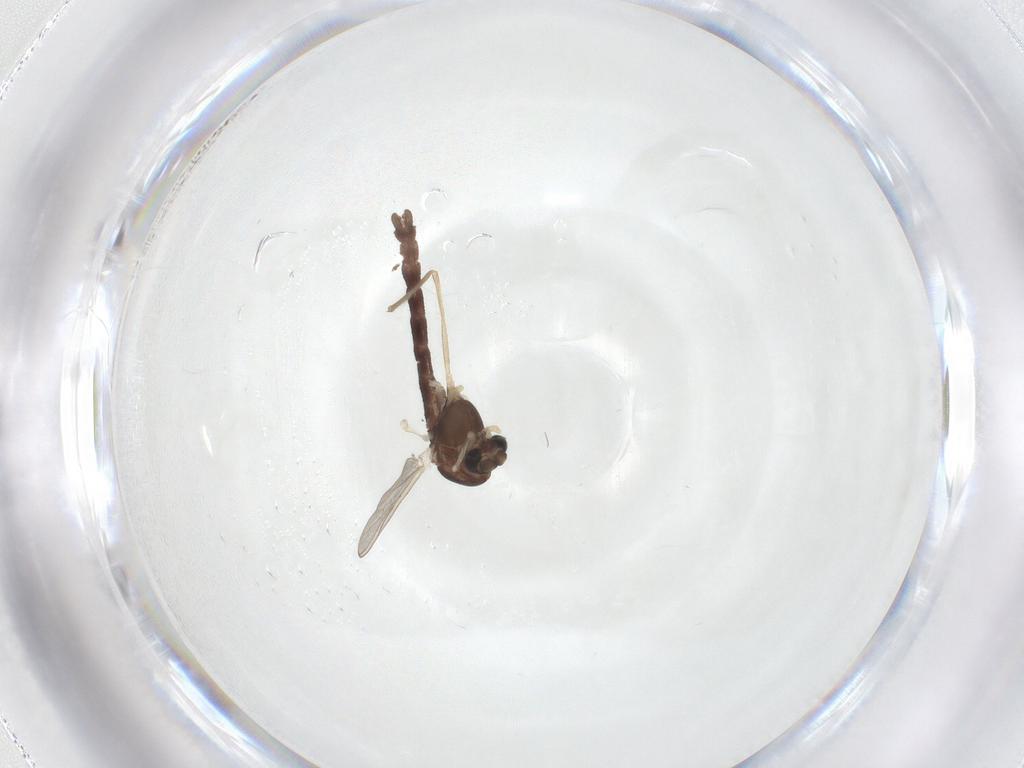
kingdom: Animalia
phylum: Arthropoda
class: Insecta
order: Diptera
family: Chironomidae
